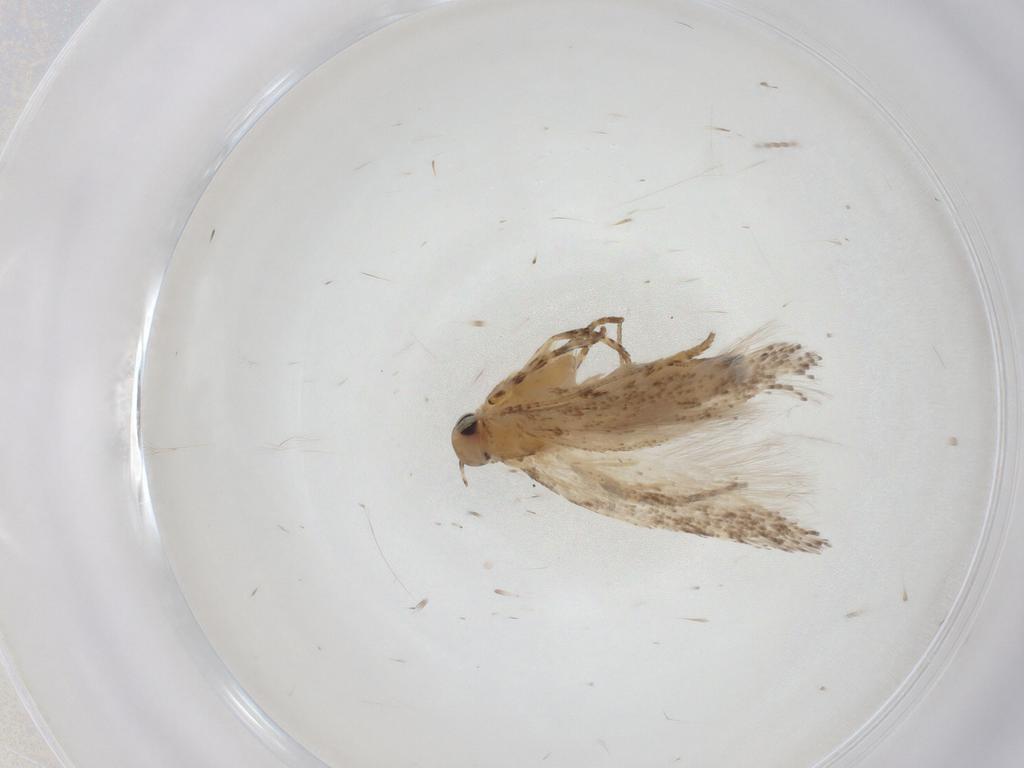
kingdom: Animalia
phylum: Arthropoda
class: Insecta
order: Lepidoptera
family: Gelechiidae
